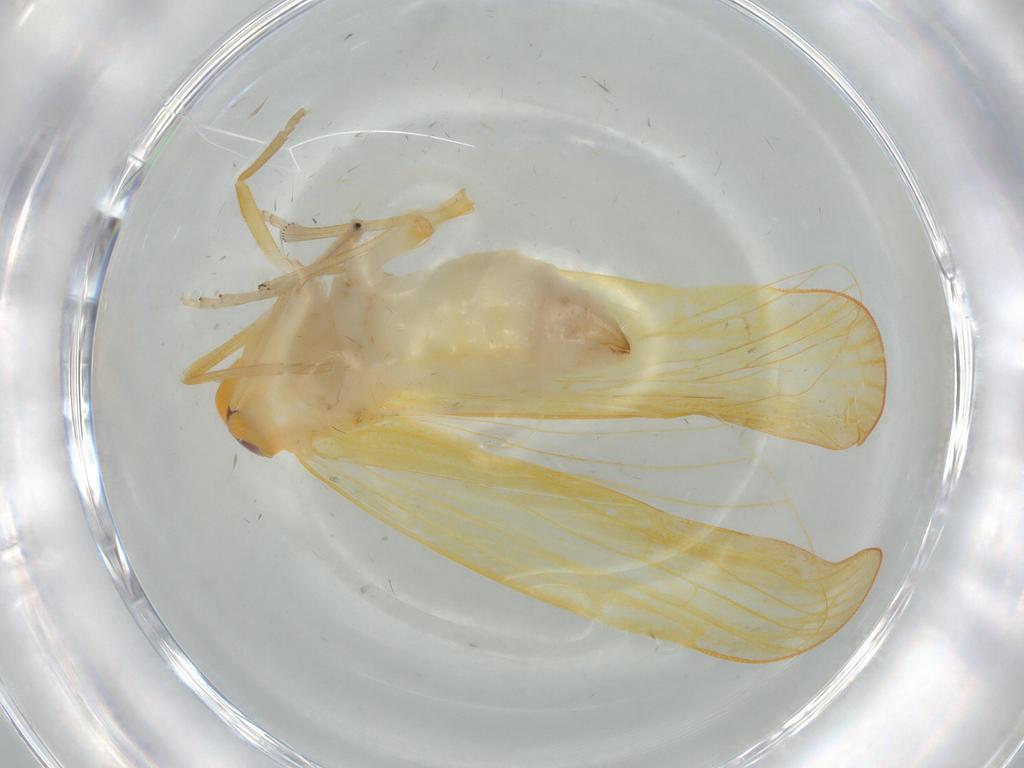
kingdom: Animalia
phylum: Arthropoda
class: Insecta
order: Hemiptera
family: Derbidae
